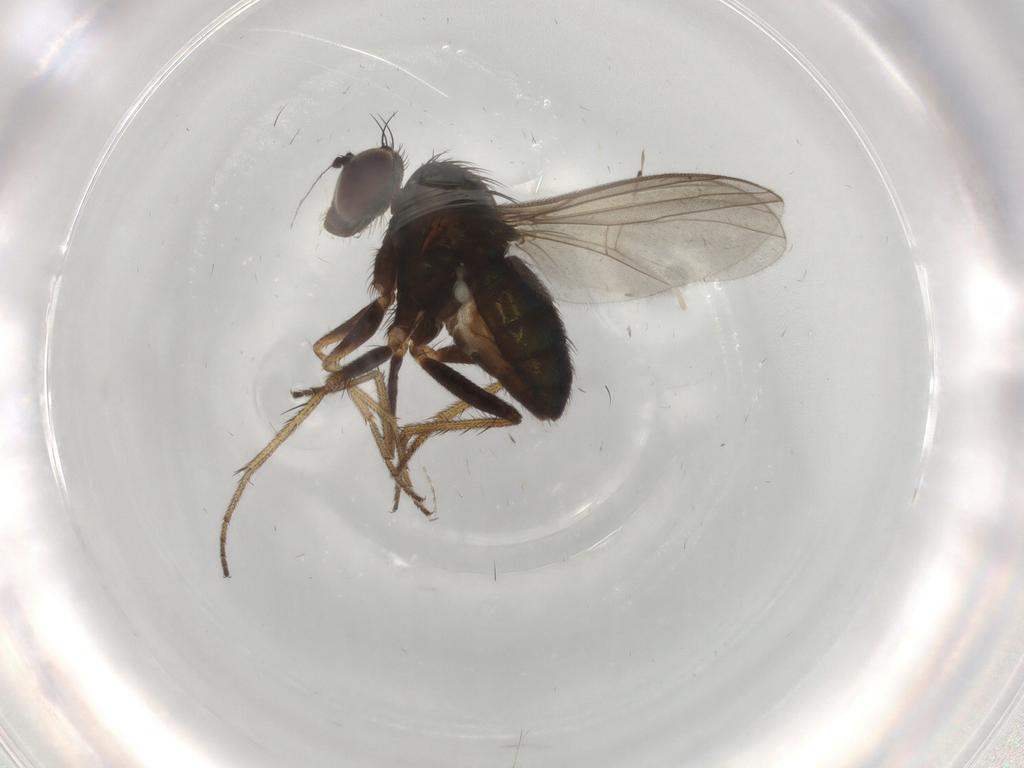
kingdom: Animalia
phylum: Arthropoda
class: Insecta
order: Diptera
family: Sciaridae
